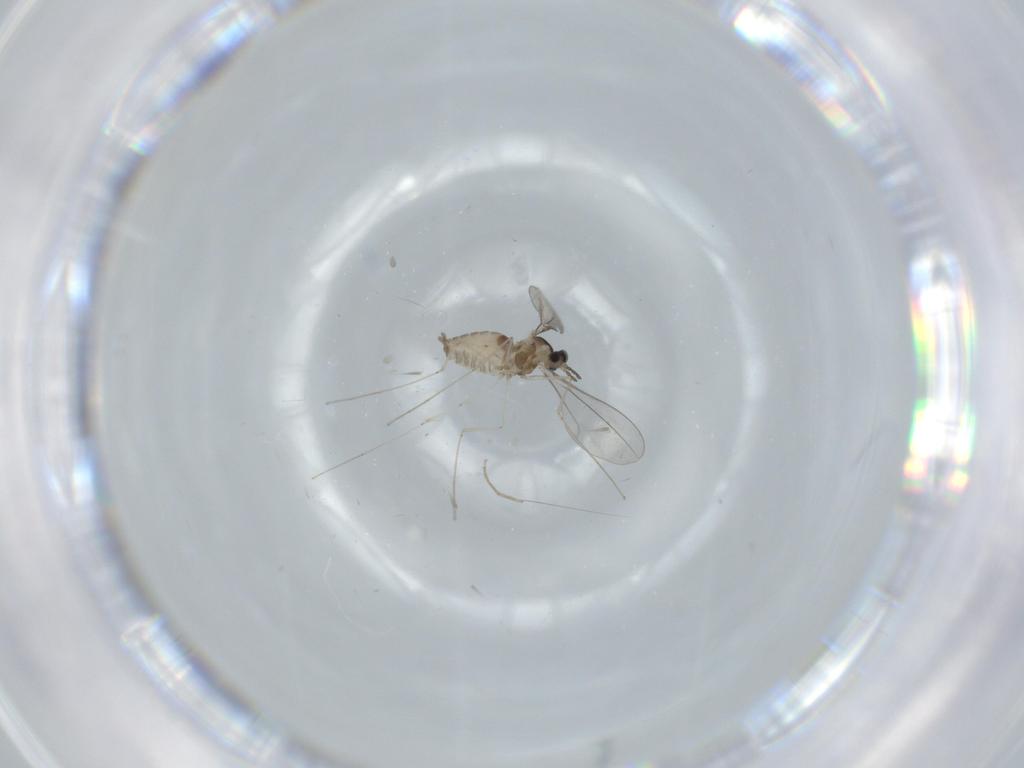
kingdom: Animalia
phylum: Arthropoda
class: Insecta
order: Diptera
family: Cecidomyiidae
